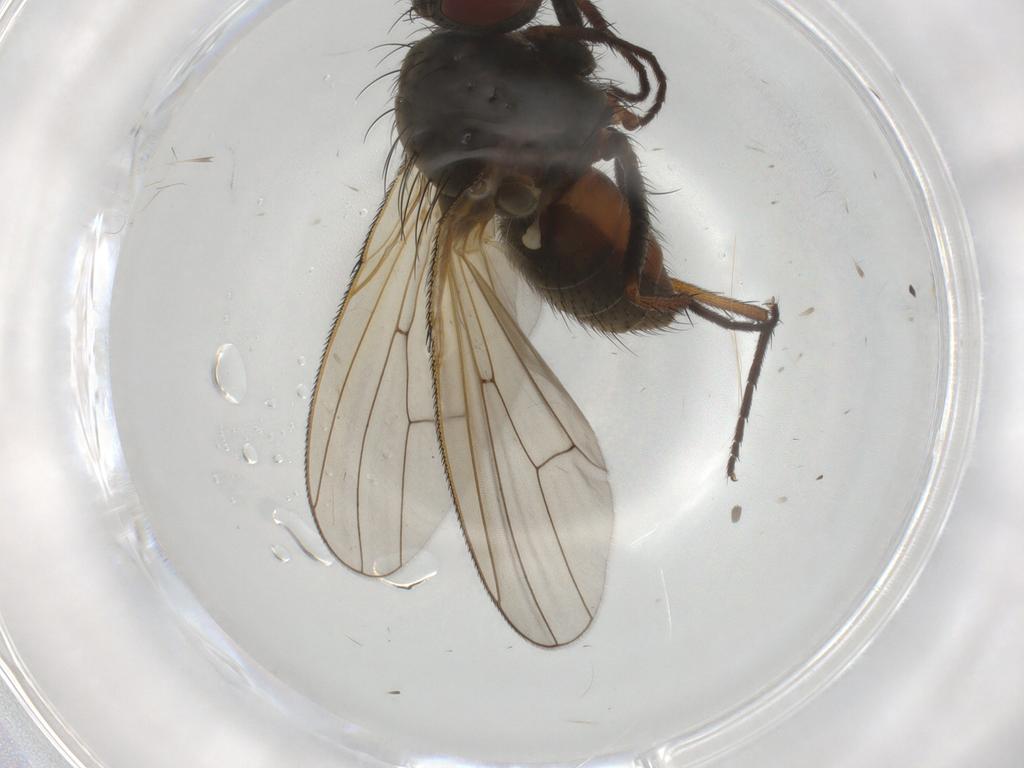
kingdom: Animalia
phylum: Arthropoda
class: Insecta
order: Diptera
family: Anthomyiidae
